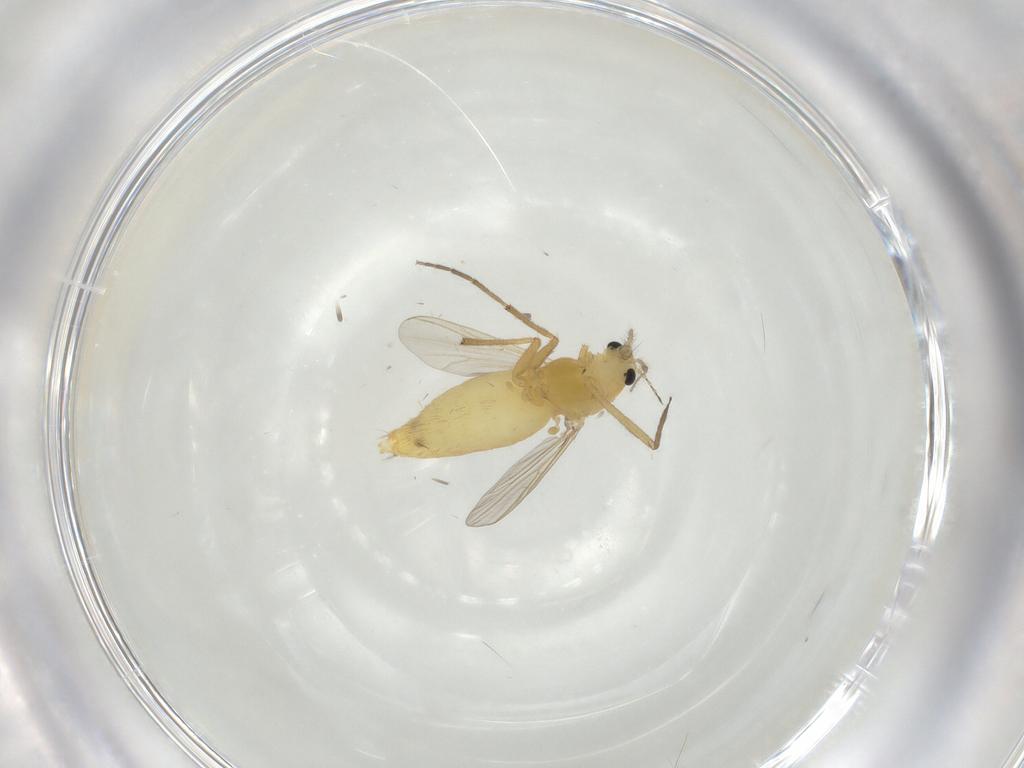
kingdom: Animalia
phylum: Arthropoda
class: Insecta
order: Diptera
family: Chironomidae
